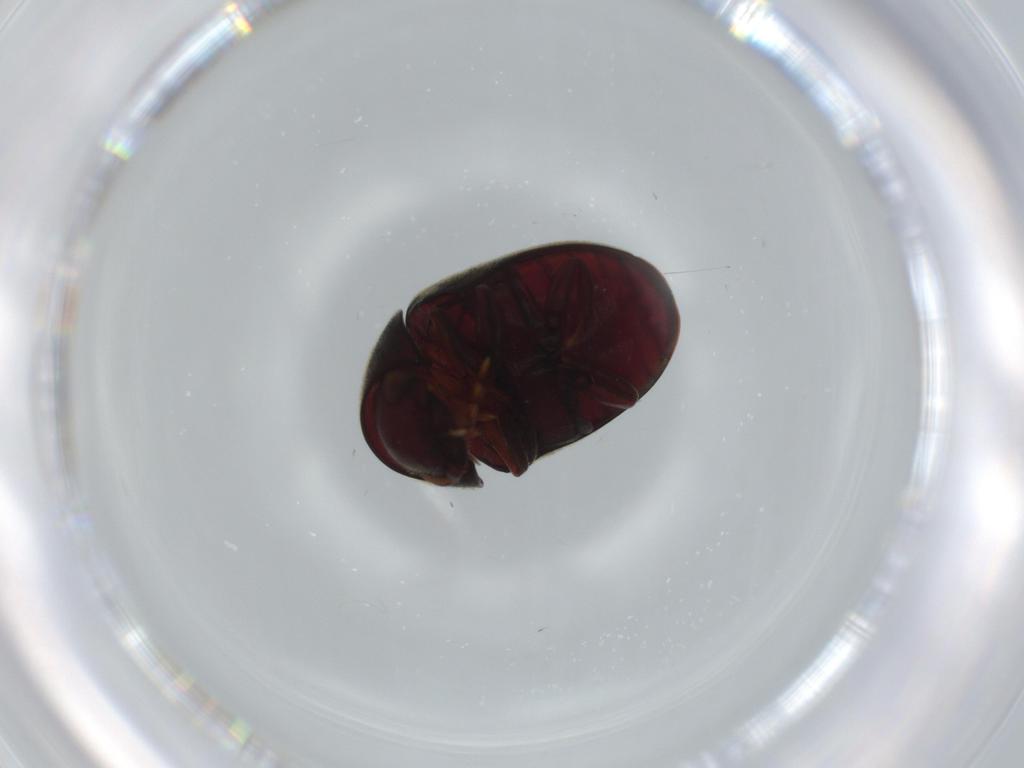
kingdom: Animalia
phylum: Arthropoda
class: Insecta
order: Coleoptera
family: Ptinidae
